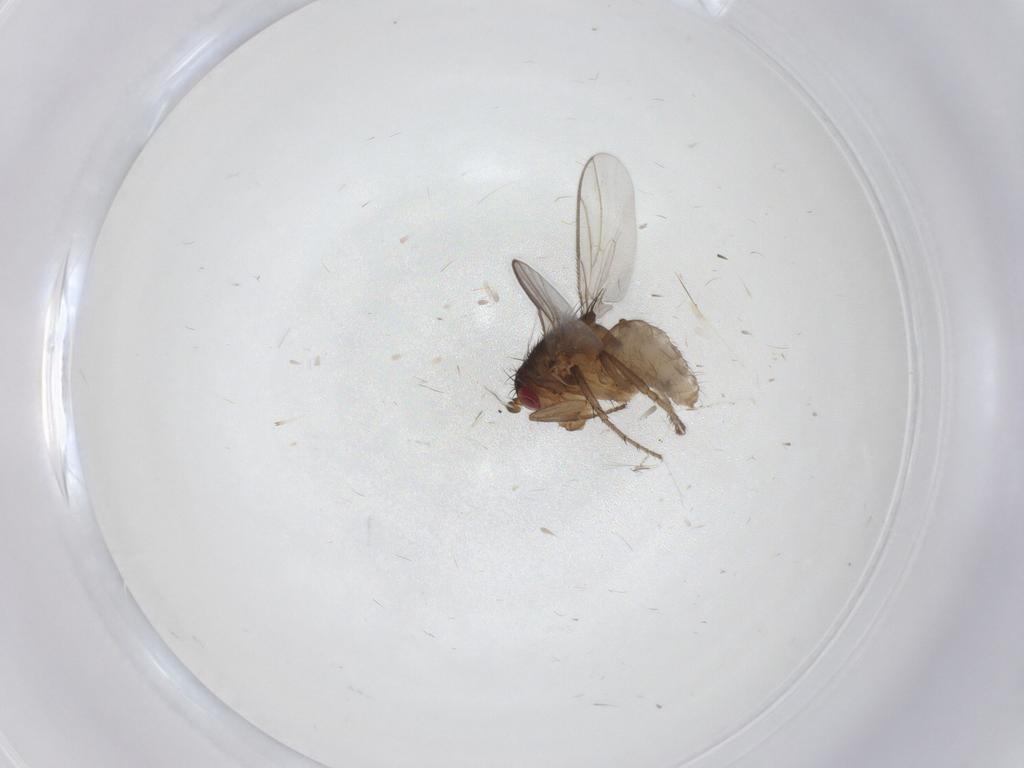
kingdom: Animalia
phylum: Arthropoda
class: Insecta
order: Diptera
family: Sphaeroceridae
